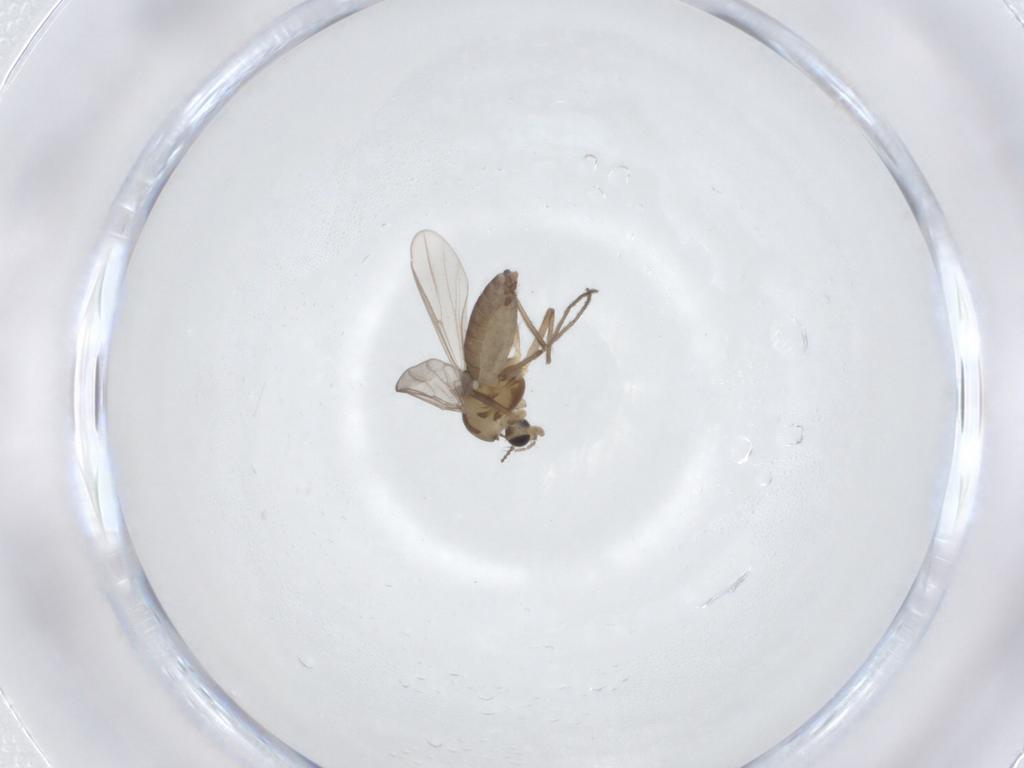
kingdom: Animalia
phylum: Arthropoda
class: Insecta
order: Diptera
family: Chironomidae
